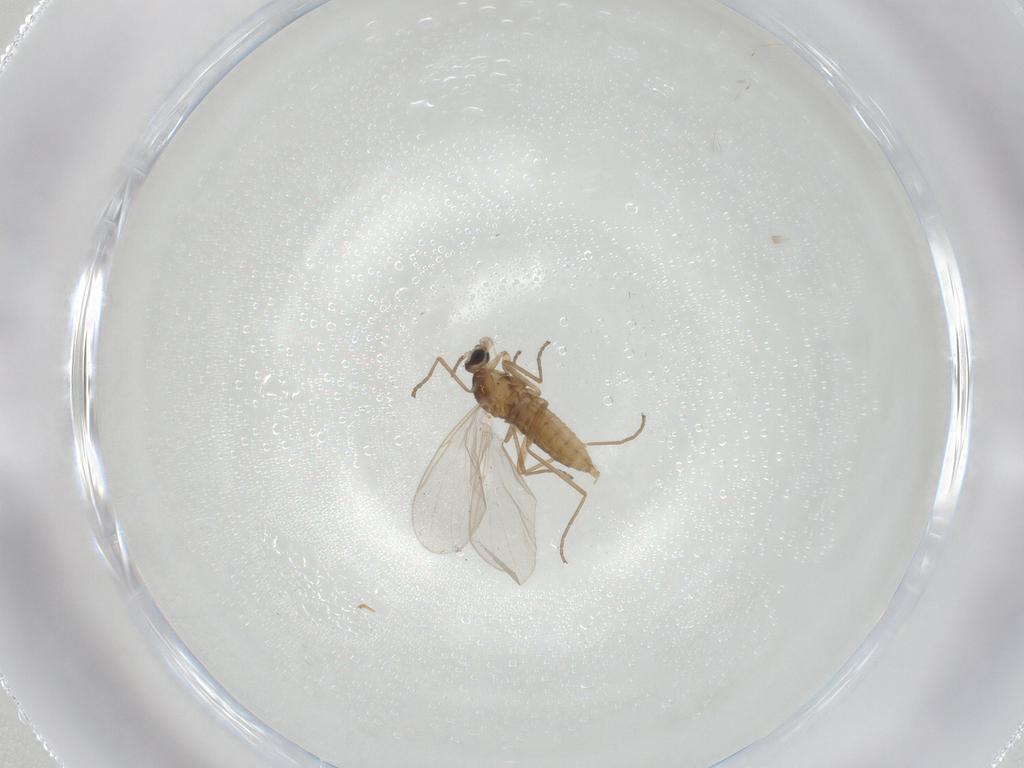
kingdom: Animalia
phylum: Arthropoda
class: Insecta
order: Diptera
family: Cecidomyiidae
